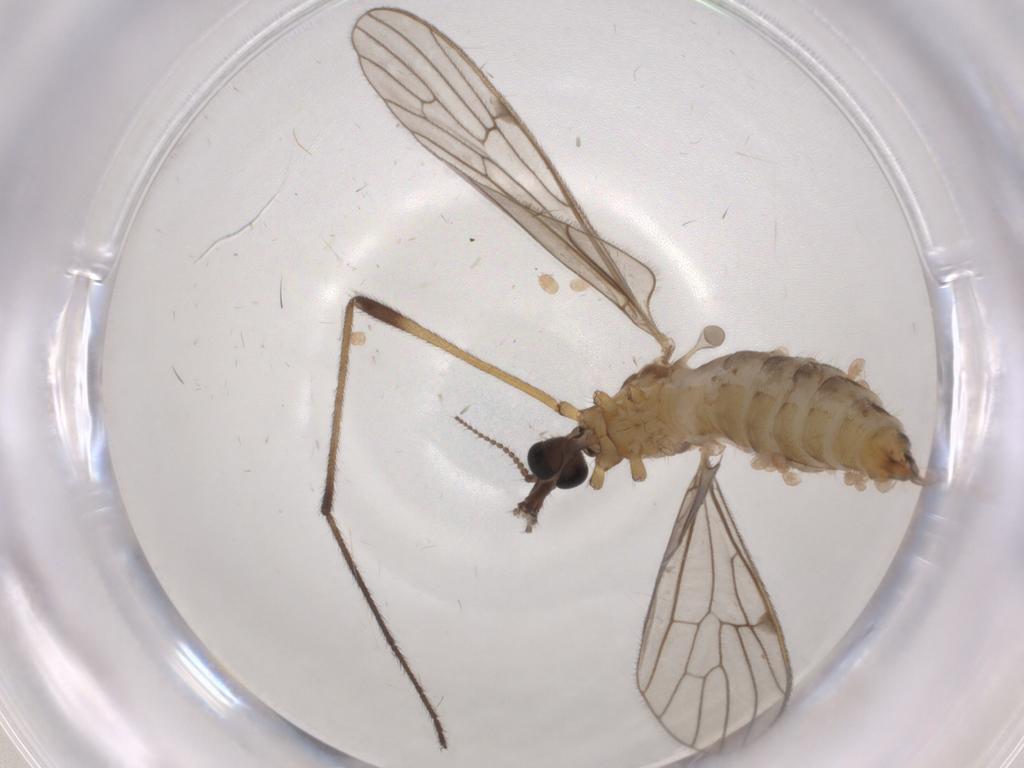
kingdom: Animalia
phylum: Arthropoda
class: Insecta
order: Diptera
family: Limoniidae
